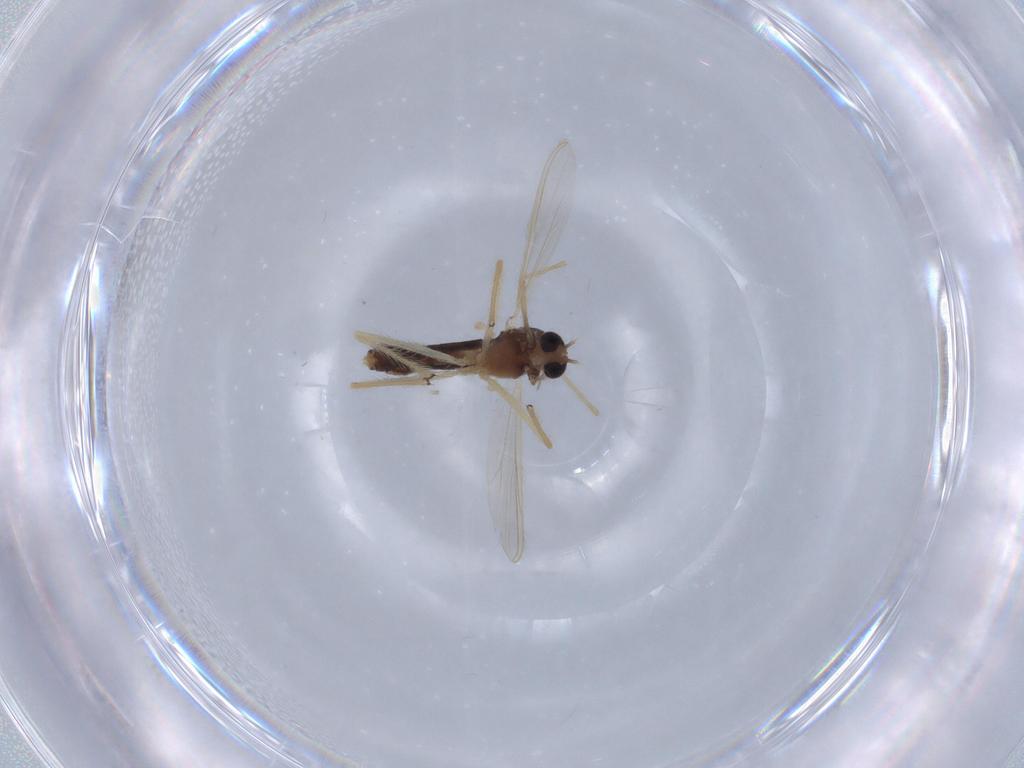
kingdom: Animalia
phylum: Arthropoda
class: Insecta
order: Diptera
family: Chironomidae
